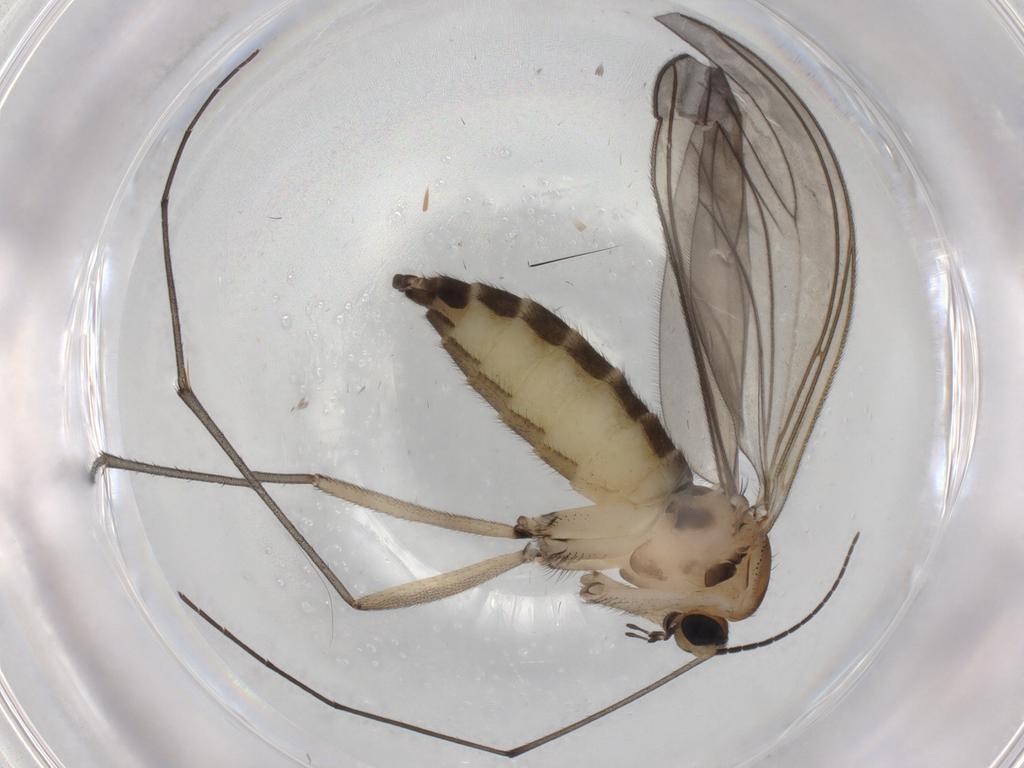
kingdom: Animalia
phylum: Arthropoda
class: Insecta
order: Diptera
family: Sciaridae
